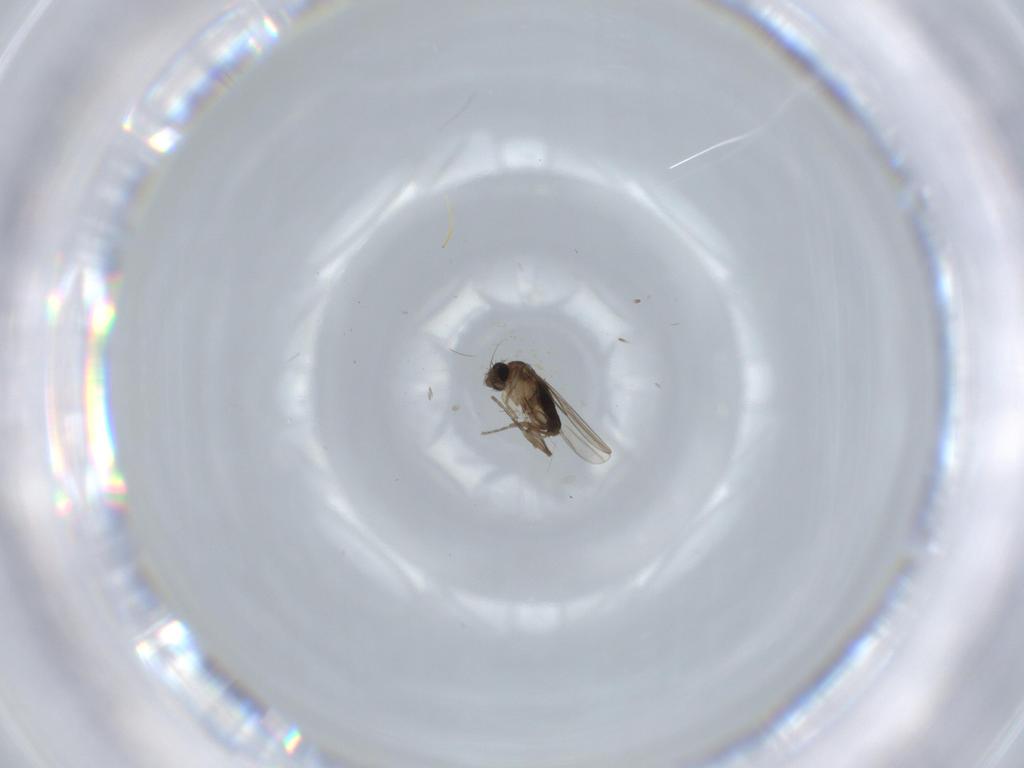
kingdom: Animalia
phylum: Arthropoda
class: Insecta
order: Diptera
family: Phoridae
